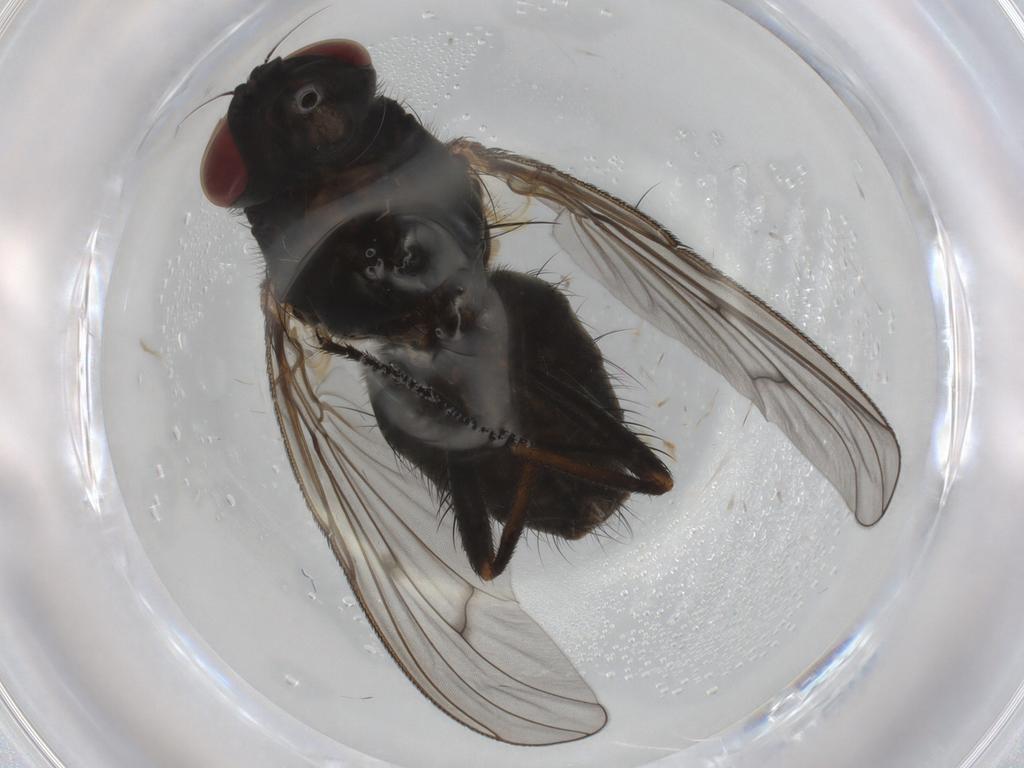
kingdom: Animalia
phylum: Arthropoda
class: Insecta
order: Diptera
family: Muscidae
